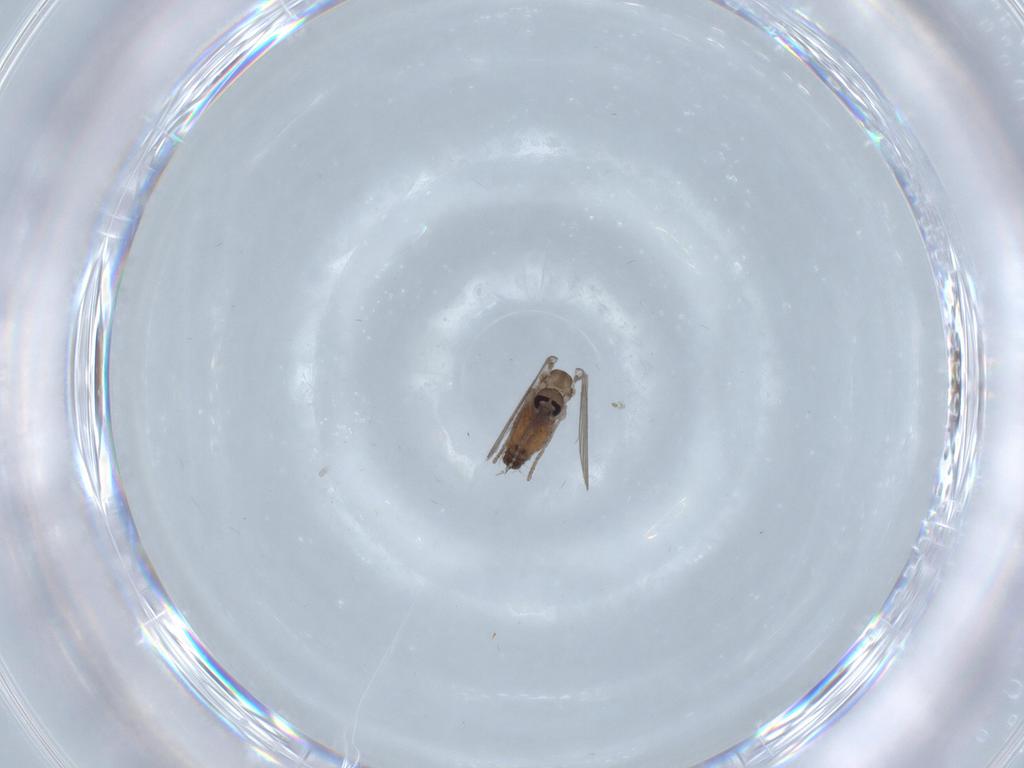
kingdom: Animalia
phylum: Arthropoda
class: Insecta
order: Diptera
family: Psychodidae
